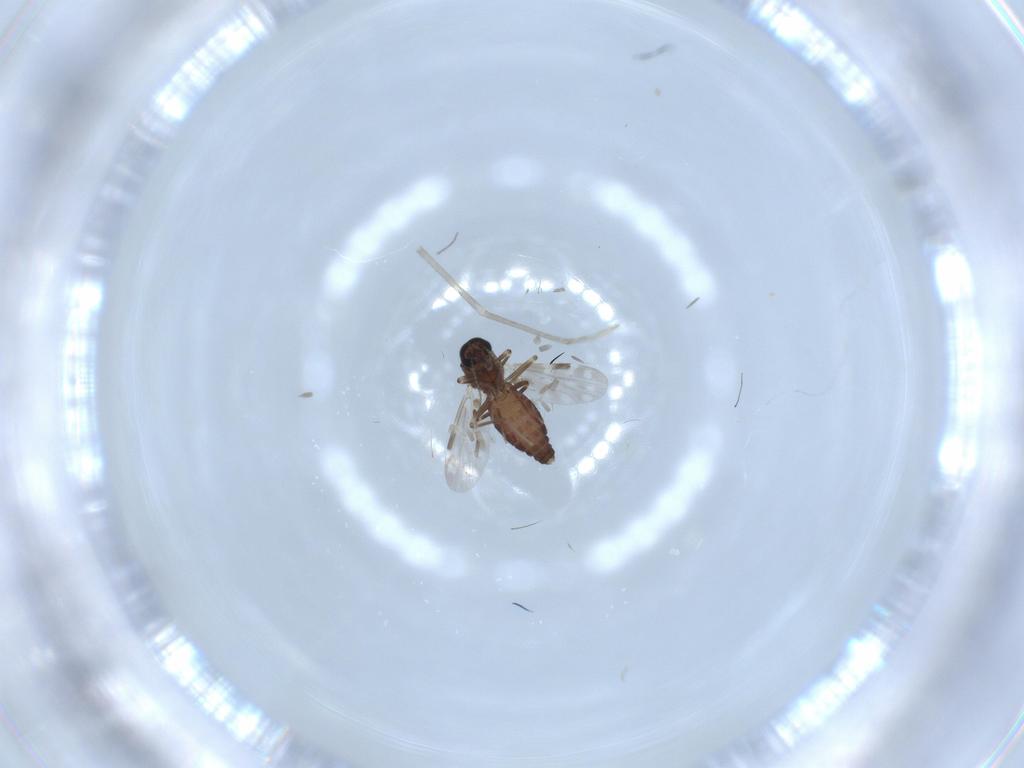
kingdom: Animalia
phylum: Arthropoda
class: Insecta
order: Diptera
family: Ceratopogonidae
